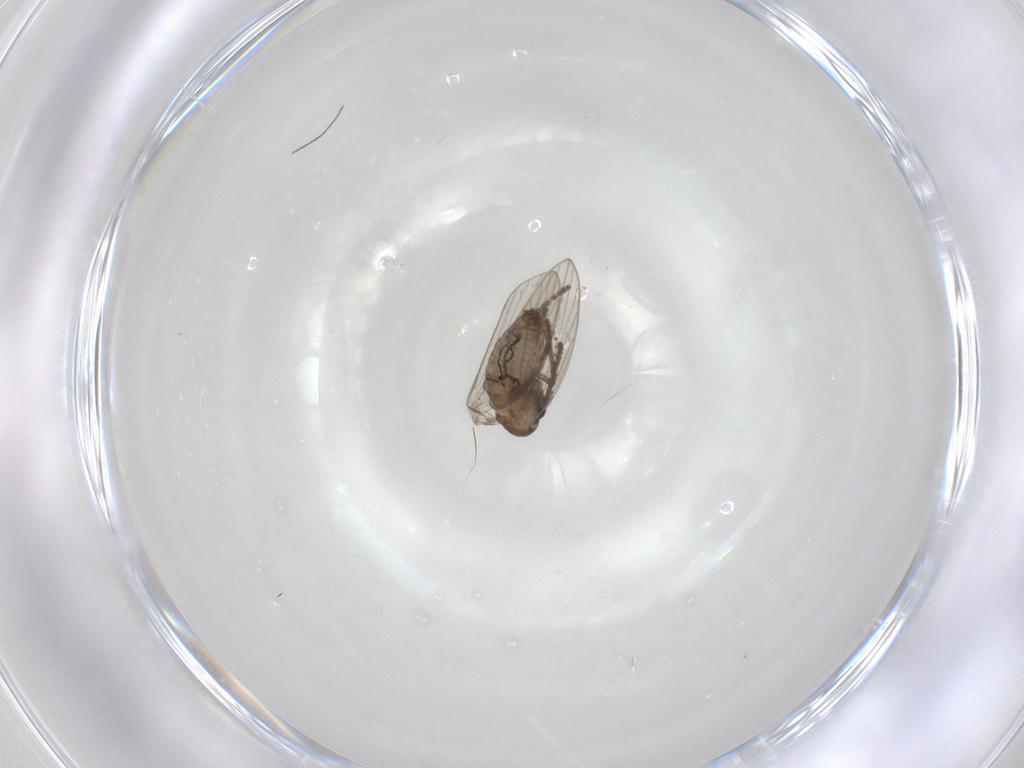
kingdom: Animalia
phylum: Arthropoda
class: Insecta
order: Diptera
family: Psychodidae
